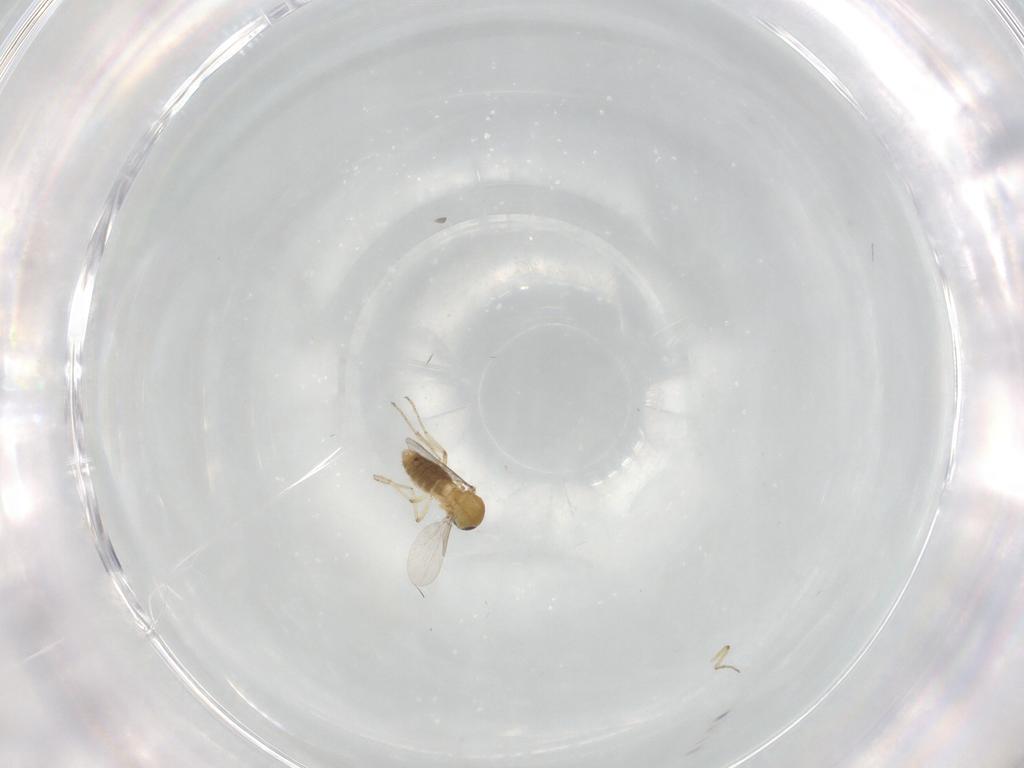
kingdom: Animalia
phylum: Arthropoda
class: Insecta
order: Diptera
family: Ceratopogonidae
